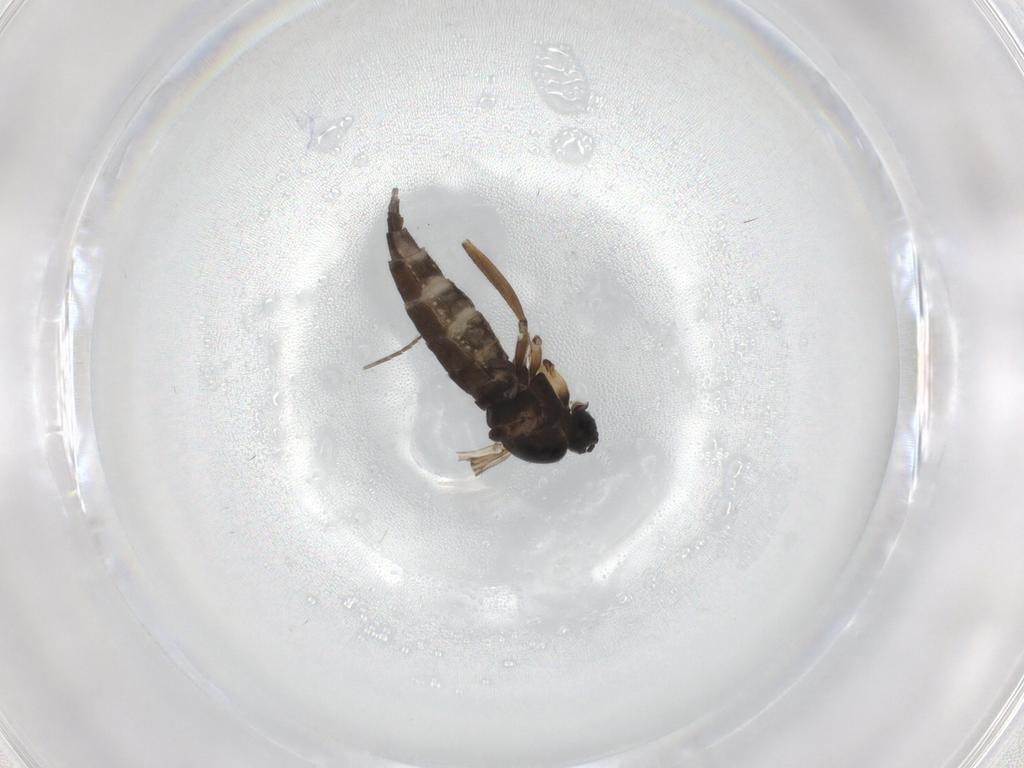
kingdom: Animalia
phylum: Arthropoda
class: Insecta
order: Diptera
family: Sciaridae
